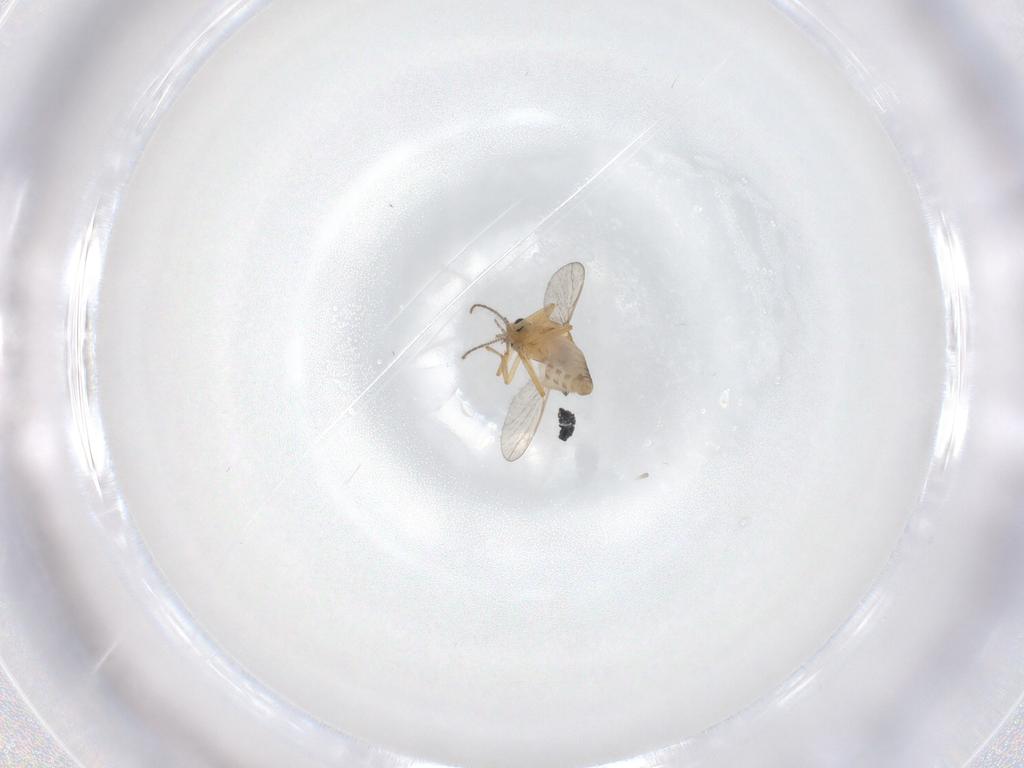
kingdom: Animalia
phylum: Arthropoda
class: Insecta
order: Diptera
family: Ceratopogonidae
